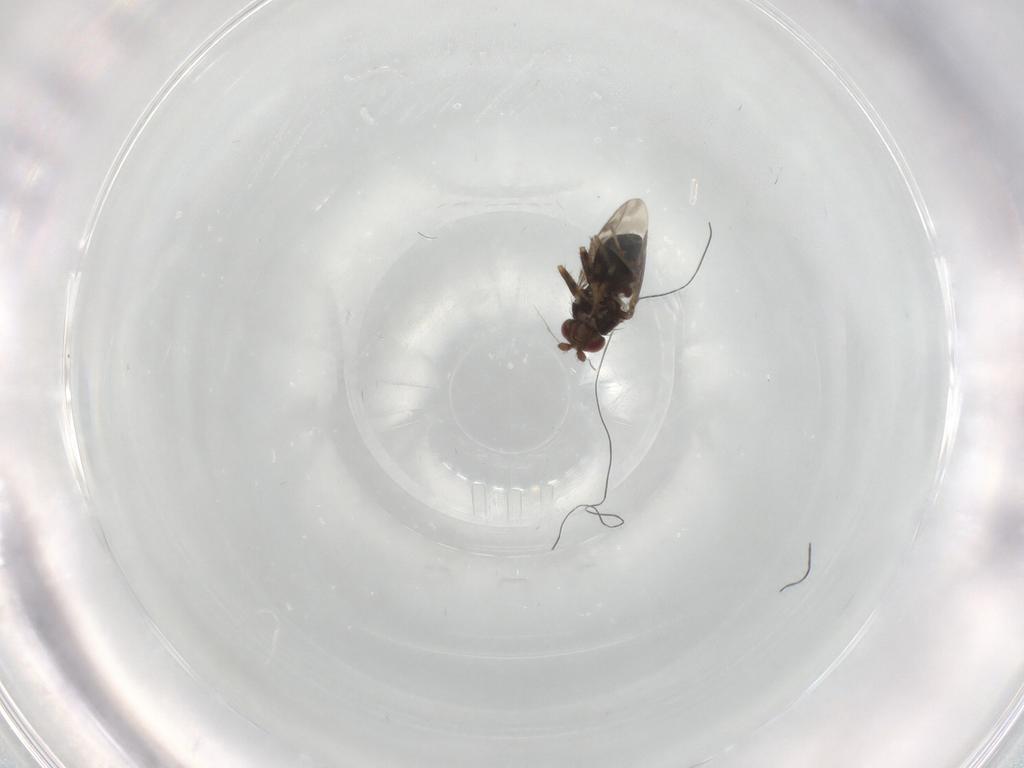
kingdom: Animalia
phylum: Arthropoda
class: Insecta
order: Diptera
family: Sphaeroceridae
